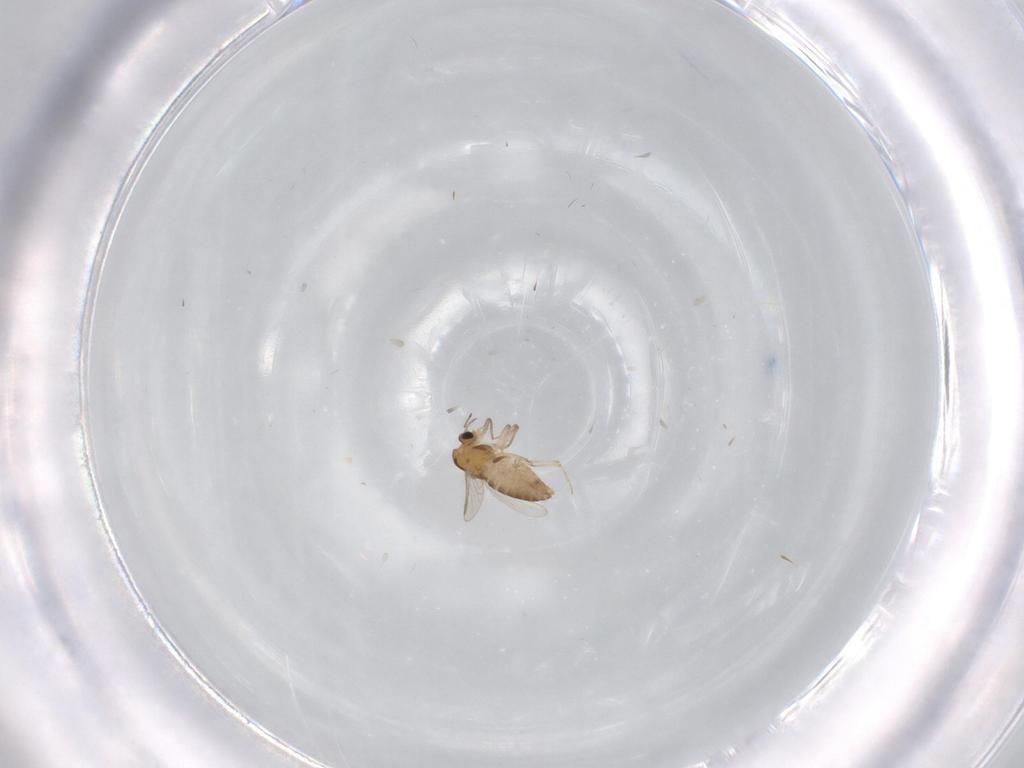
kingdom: Animalia
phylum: Arthropoda
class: Insecta
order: Diptera
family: Chironomidae
